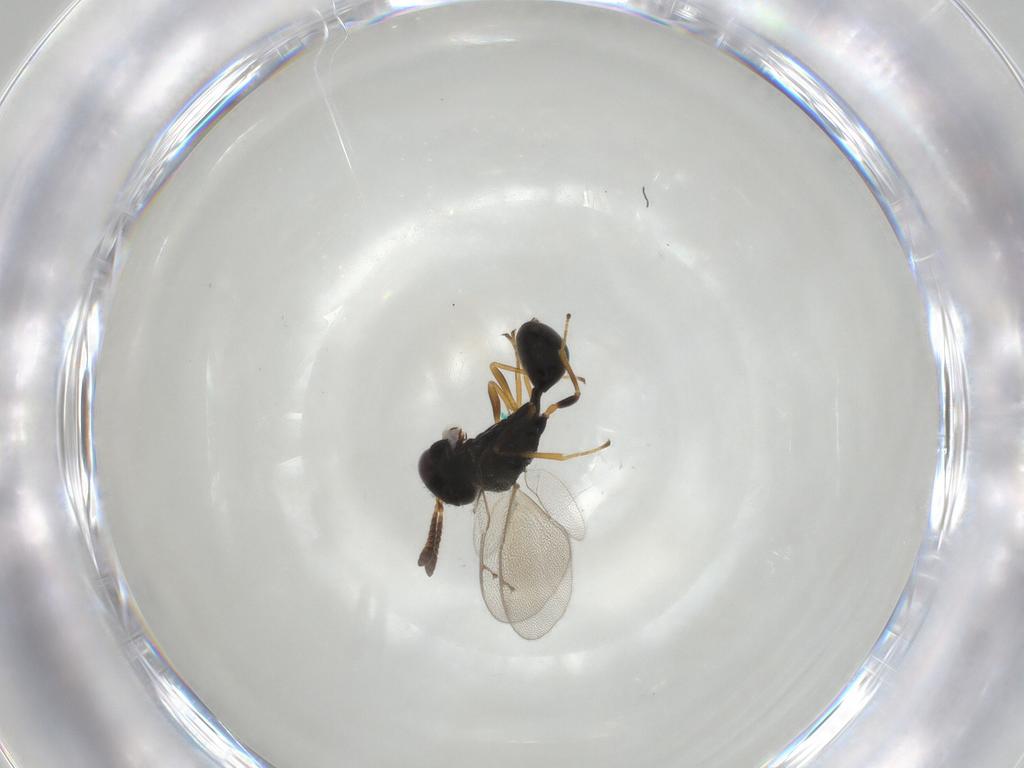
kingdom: Animalia
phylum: Arthropoda
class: Insecta
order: Hymenoptera
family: Pteromalidae
